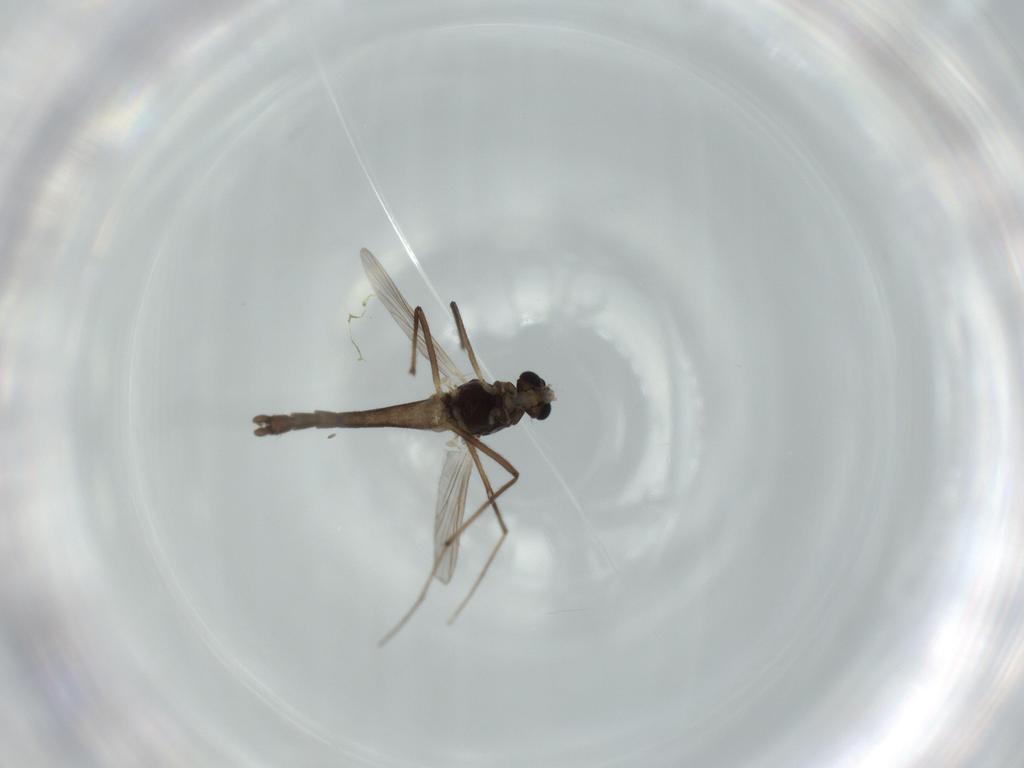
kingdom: Animalia
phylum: Arthropoda
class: Insecta
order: Diptera
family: Chironomidae
